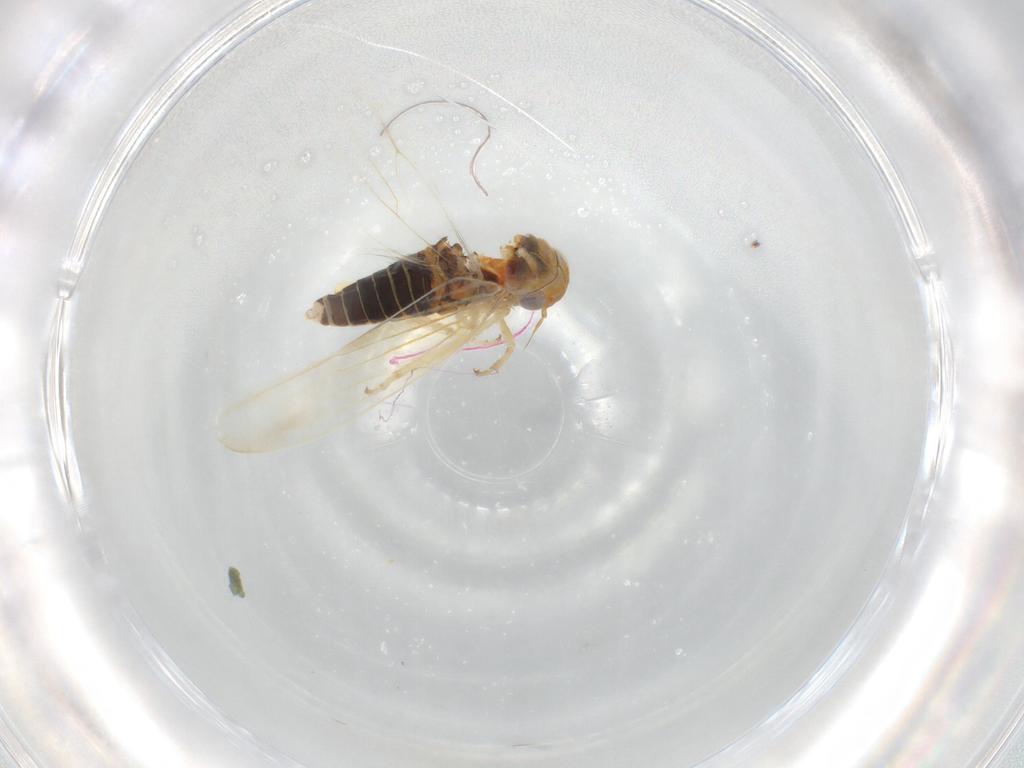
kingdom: Animalia
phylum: Arthropoda
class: Insecta
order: Hemiptera
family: Cicadellidae
